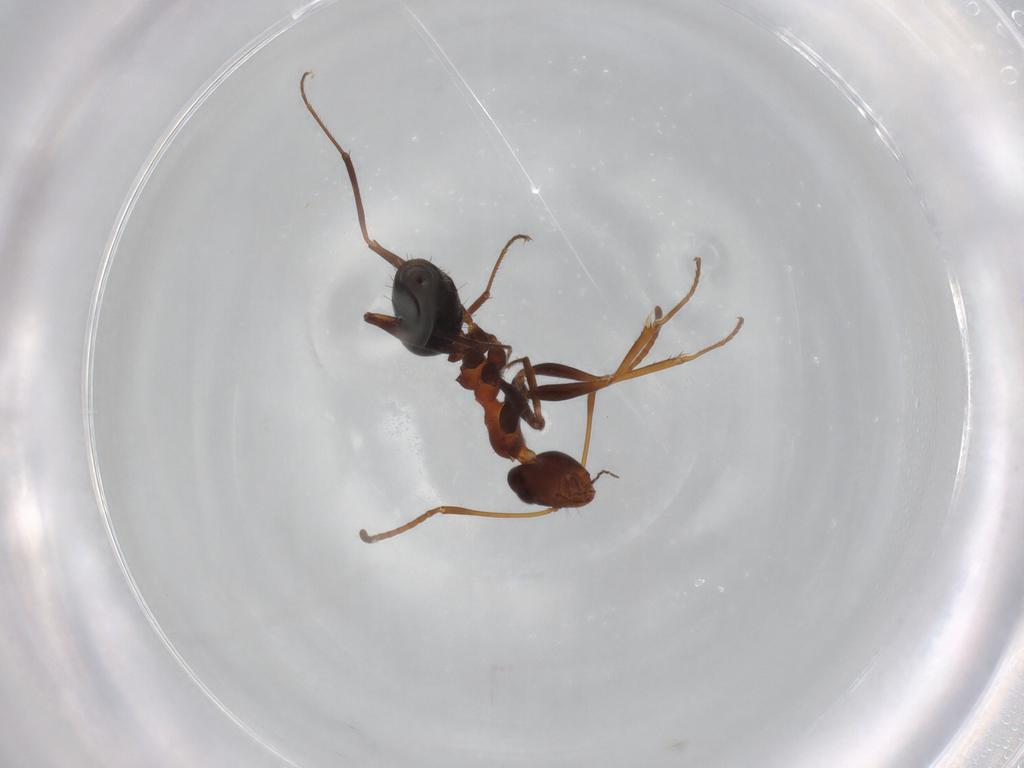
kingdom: Animalia
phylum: Arthropoda
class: Insecta
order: Hymenoptera
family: Formicidae
